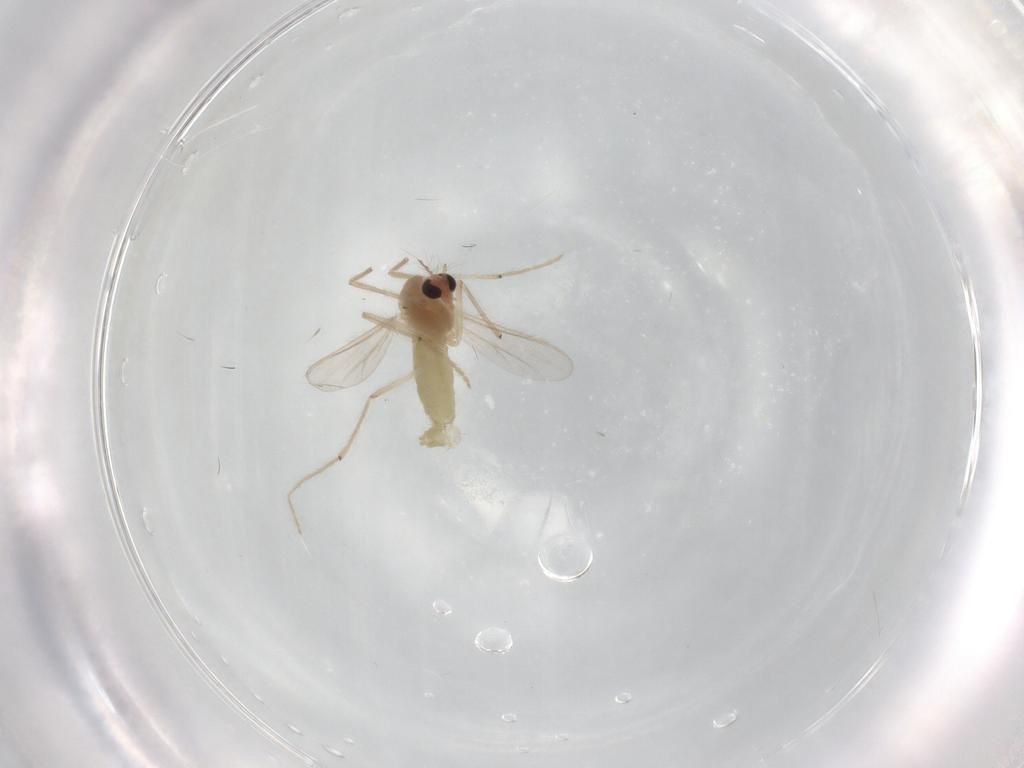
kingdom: Animalia
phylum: Arthropoda
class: Insecta
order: Diptera
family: Chironomidae
